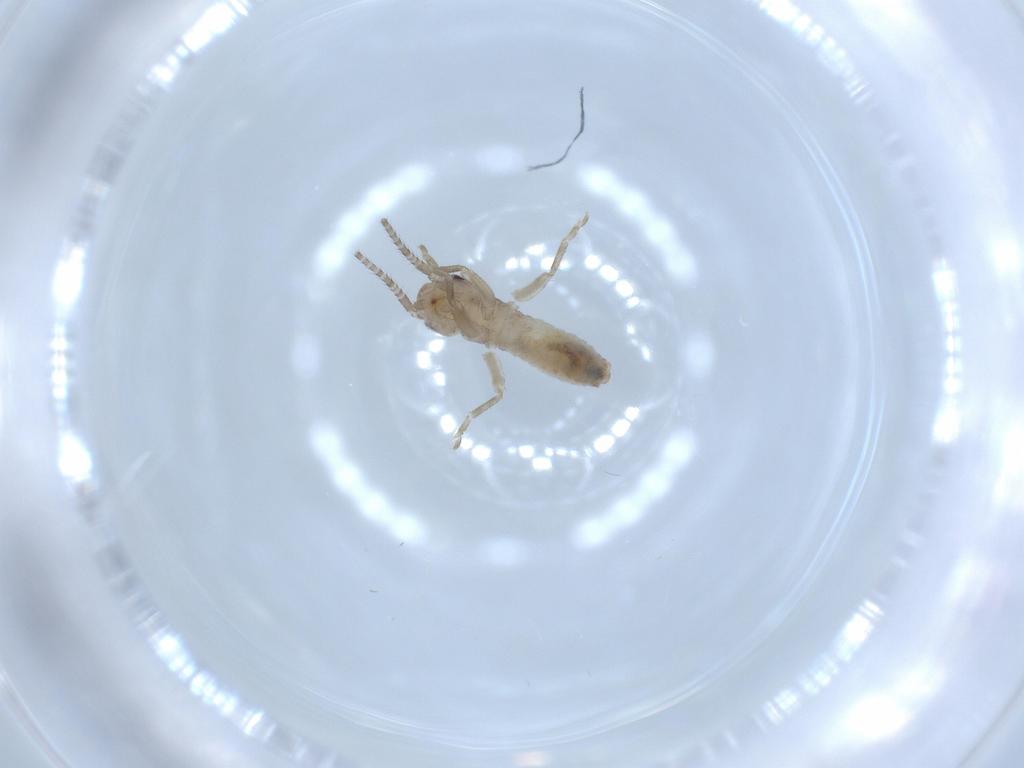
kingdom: Animalia
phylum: Arthropoda
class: Insecta
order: Orthoptera
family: Gryllidae
